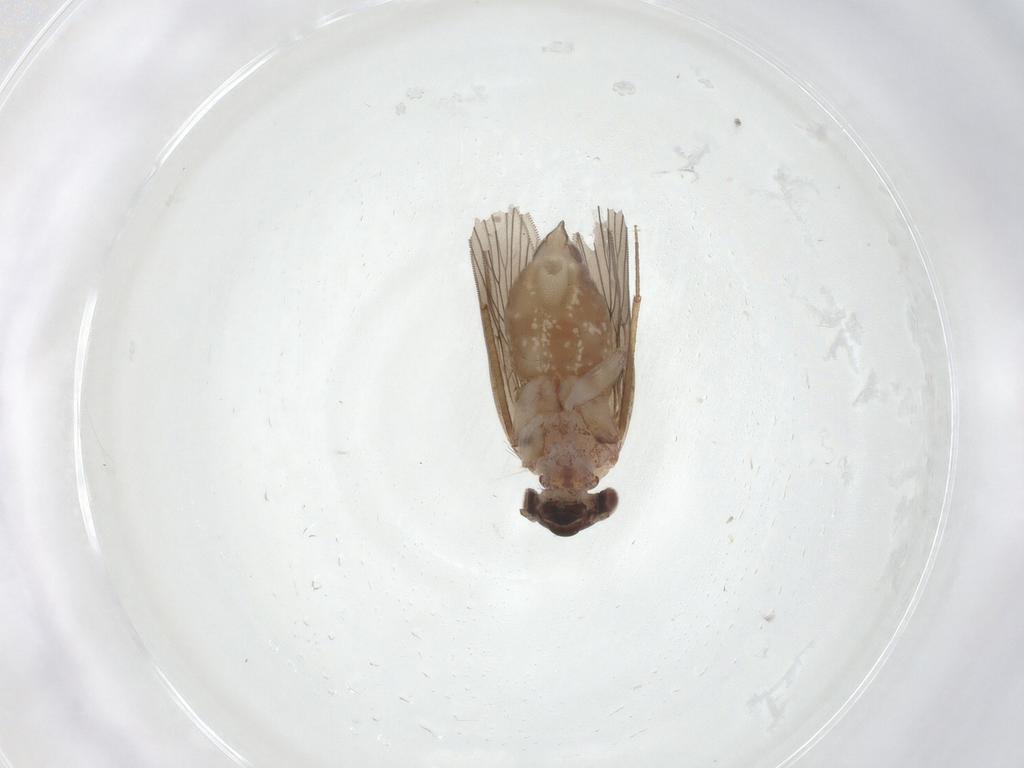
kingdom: Animalia
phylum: Arthropoda
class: Insecta
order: Psocodea
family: Lepidopsocidae
